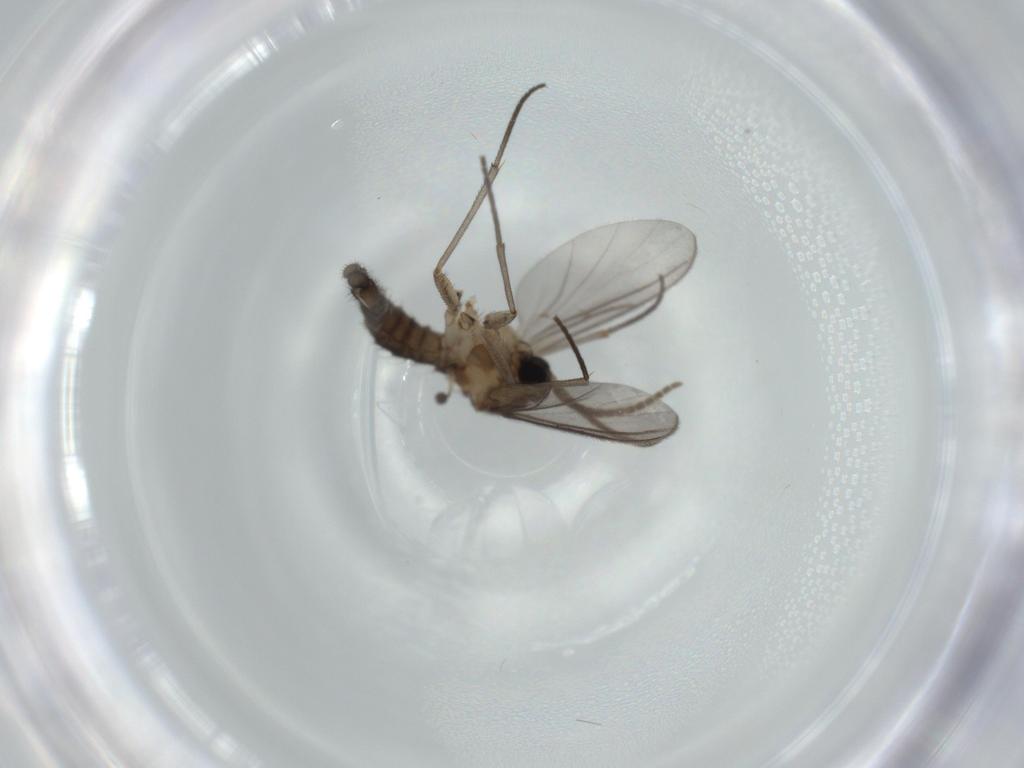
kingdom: Animalia
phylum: Arthropoda
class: Insecta
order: Diptera
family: Sciaridae
